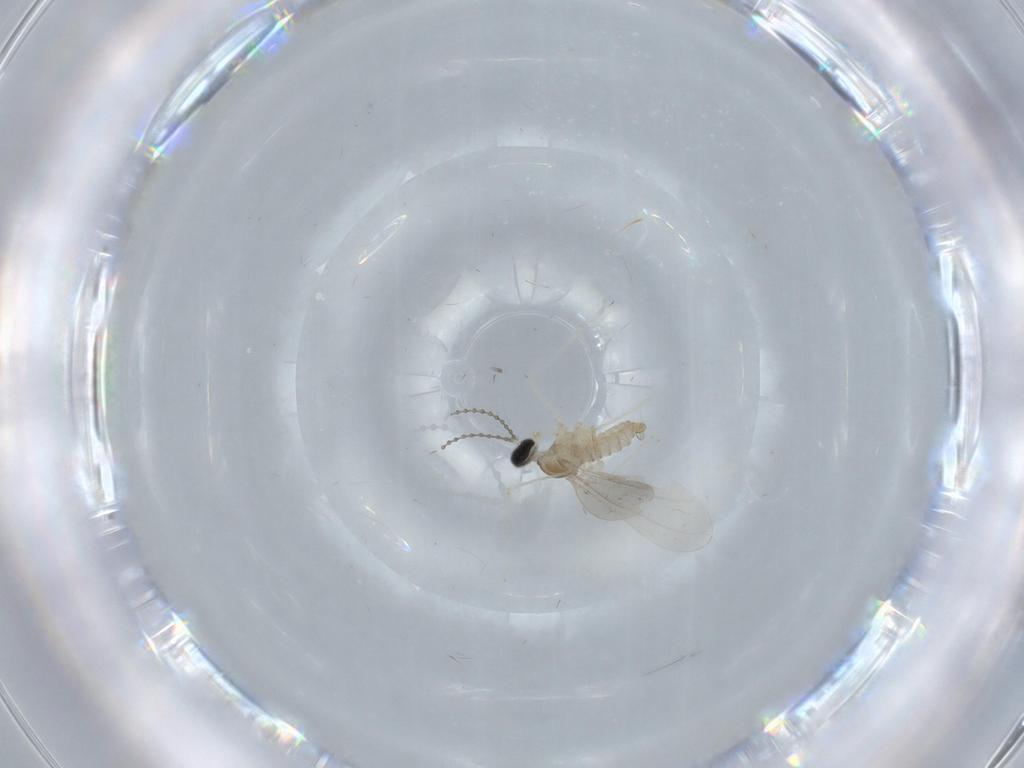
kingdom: Animalia
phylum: Arthropoda
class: Insecta
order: Diptera
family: Cecidomyiidae
